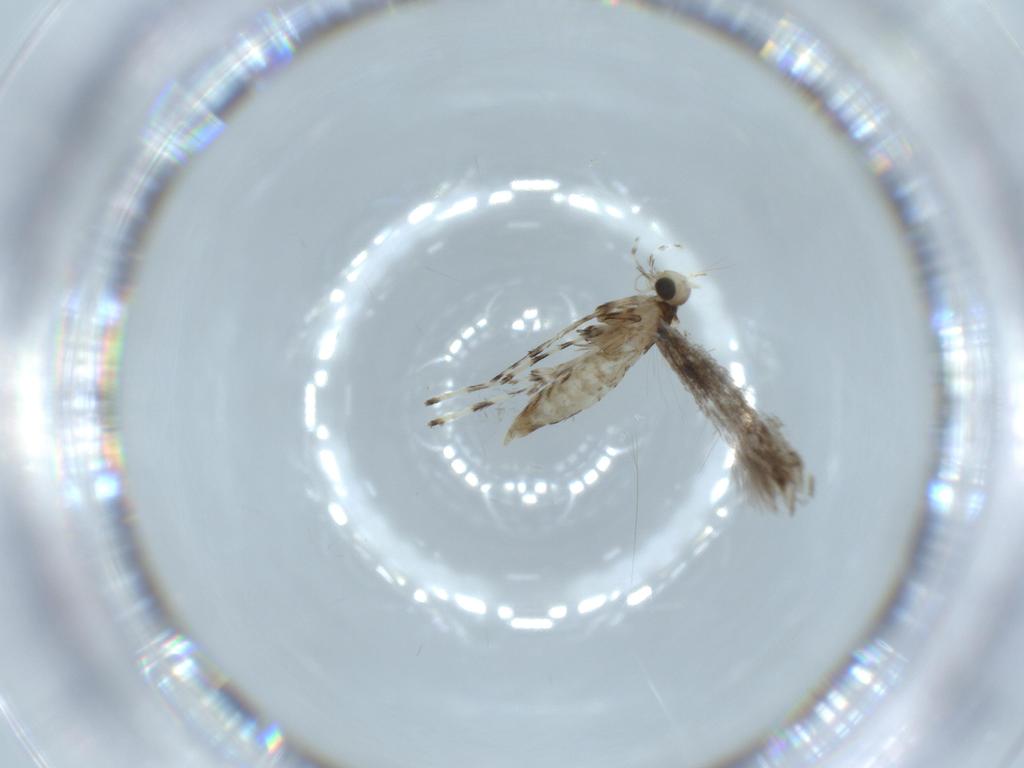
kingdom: Animalia
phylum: Arthropoda
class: Insecta
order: Lepidoptera
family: Gracillariidae
